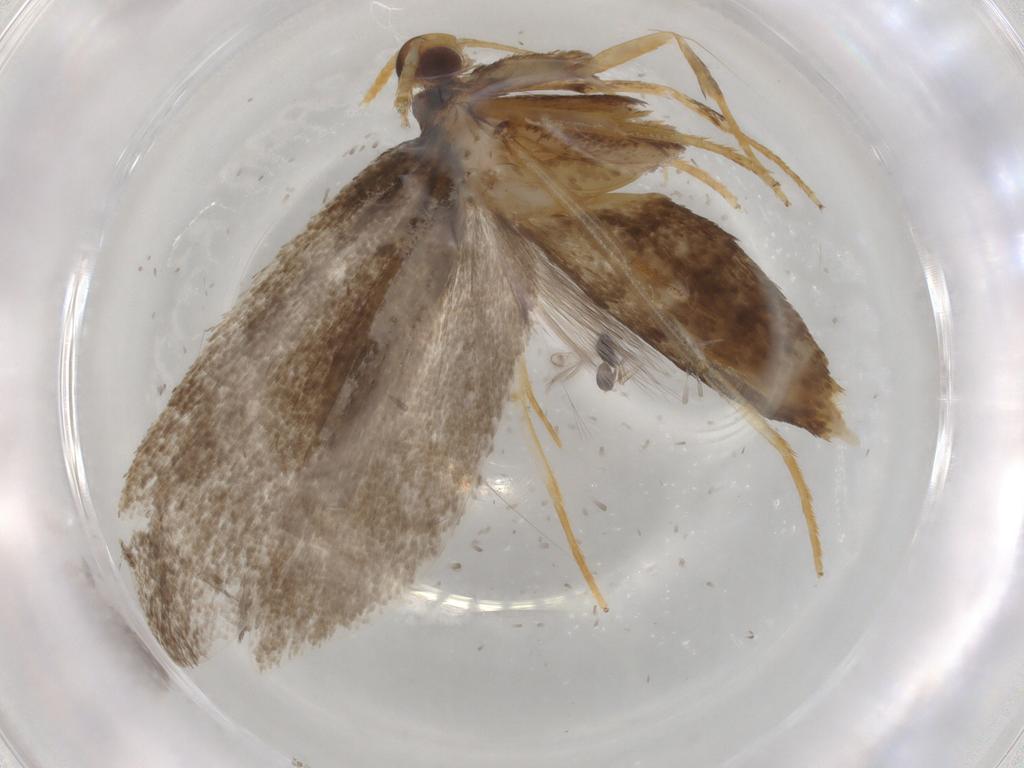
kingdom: Animalia
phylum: Arthropoda
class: Insecta
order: Lepidoptera
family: Lecithoceridae
